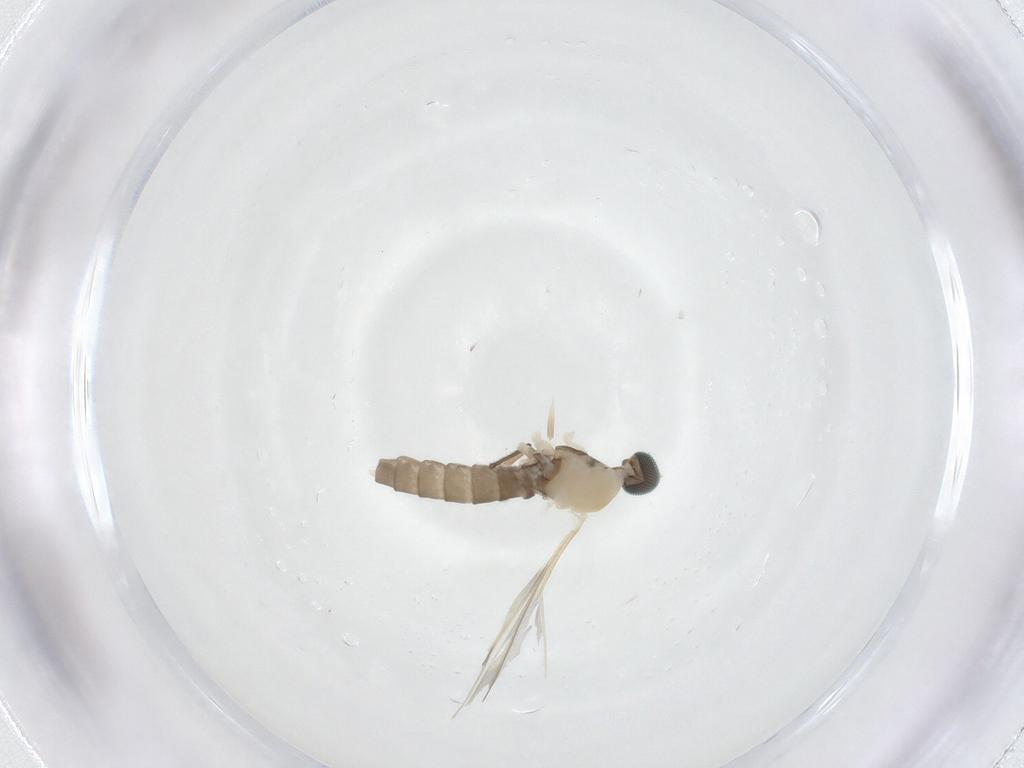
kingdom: Animalia
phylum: Arthropoda
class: Insecta
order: Diptera
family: Cecidomyiidae
